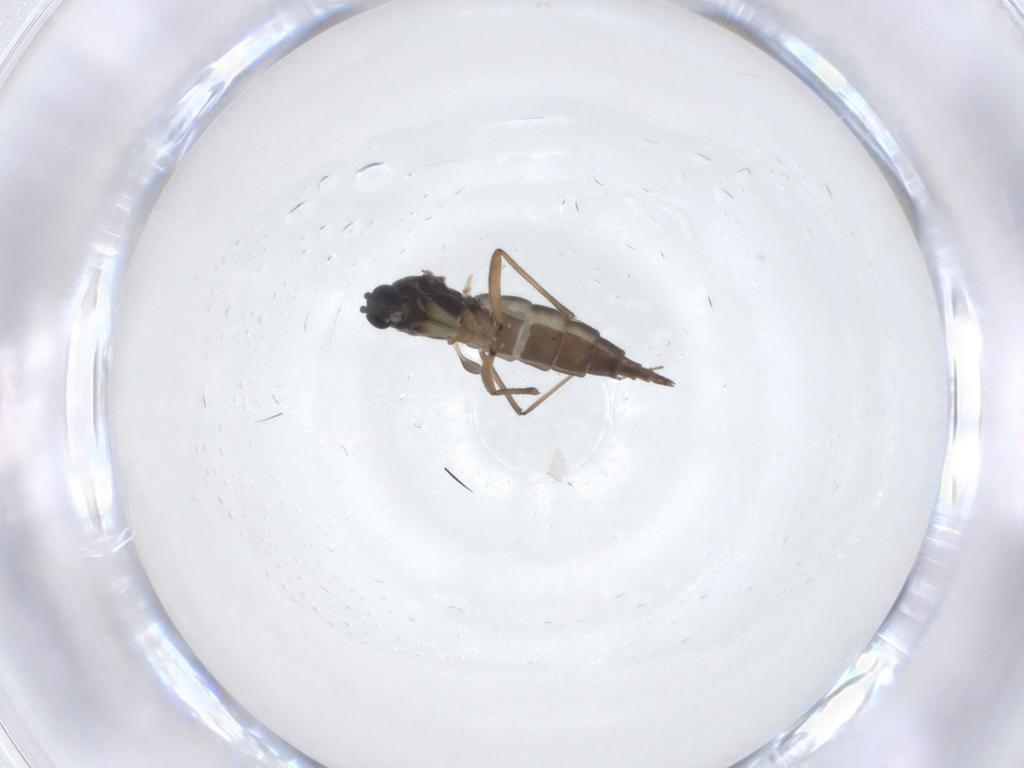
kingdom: Animalia
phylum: Arthropoda
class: Insecta
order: Diptera
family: Sciaridae
